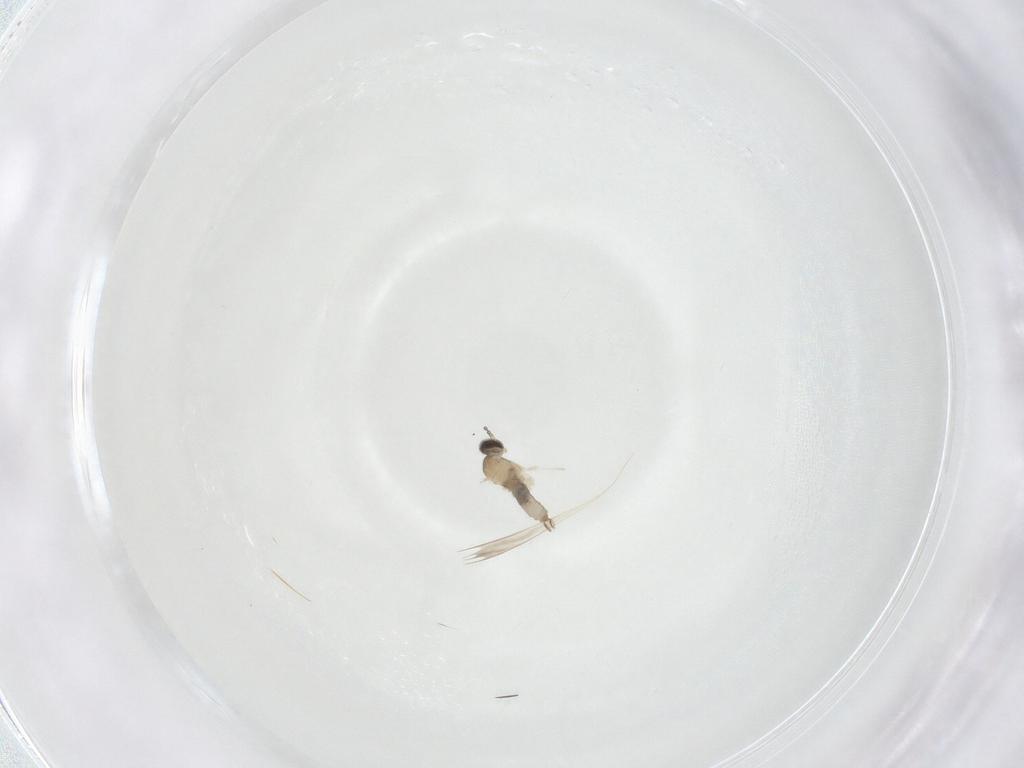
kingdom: Animalia
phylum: Arthropoda
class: Insecta
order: Diptera
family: Cecidomyiidae
